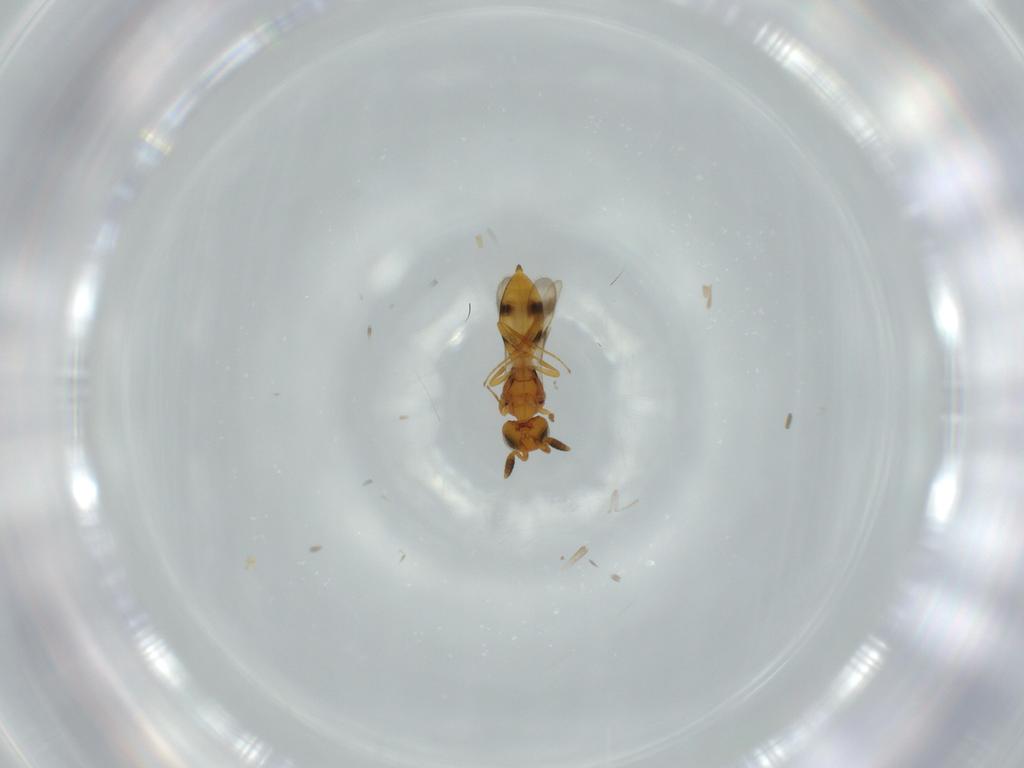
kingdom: Animalia
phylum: Arthropoda
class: Insecta
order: Hymenoptera
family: Scelionidae
